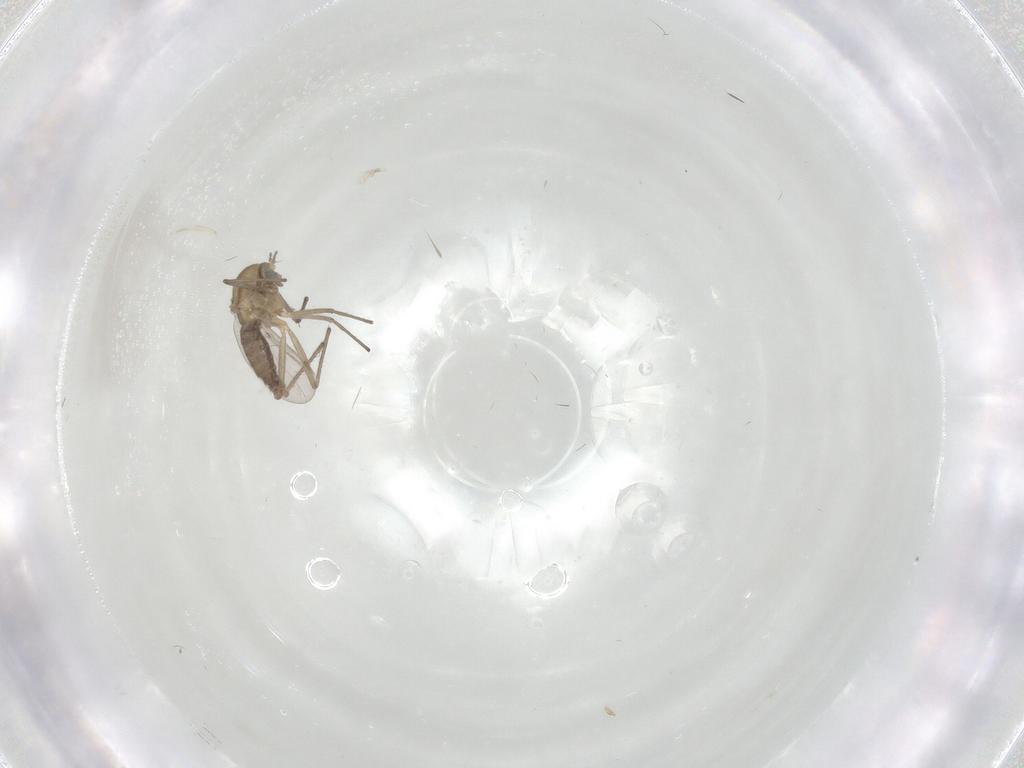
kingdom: Animalia
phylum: Arthropoda
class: Insecta
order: Diptera
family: Chironomidae
